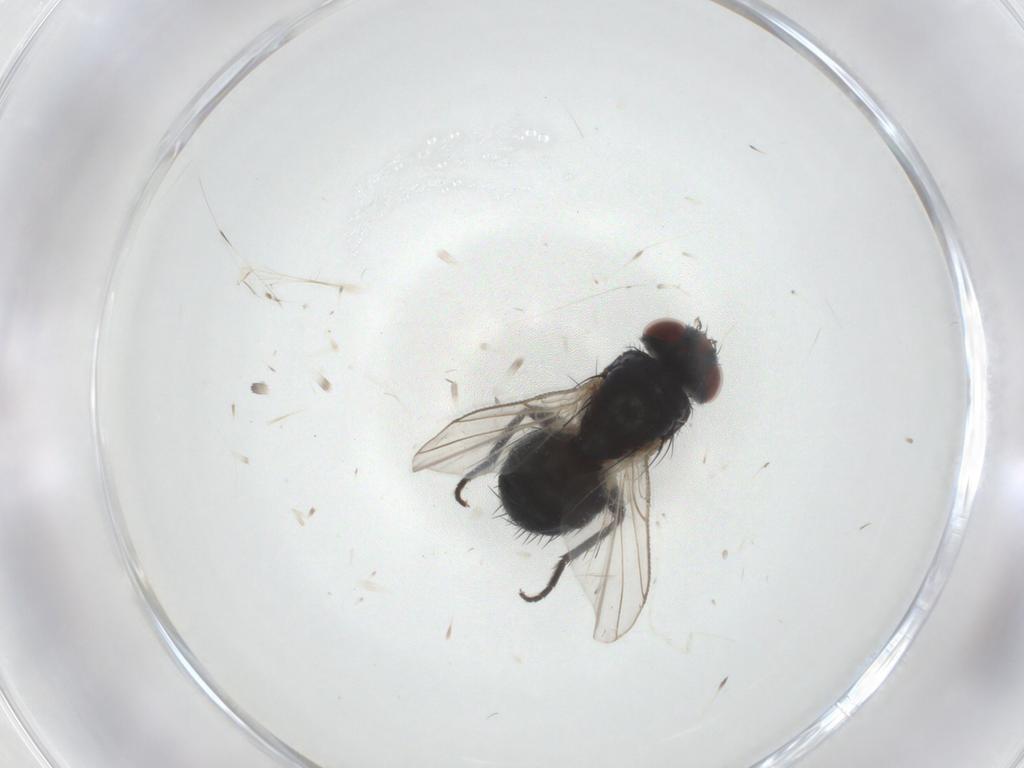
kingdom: Animalia
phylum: Arthropoda
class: Insecta
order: Diptera
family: Tachinidae
